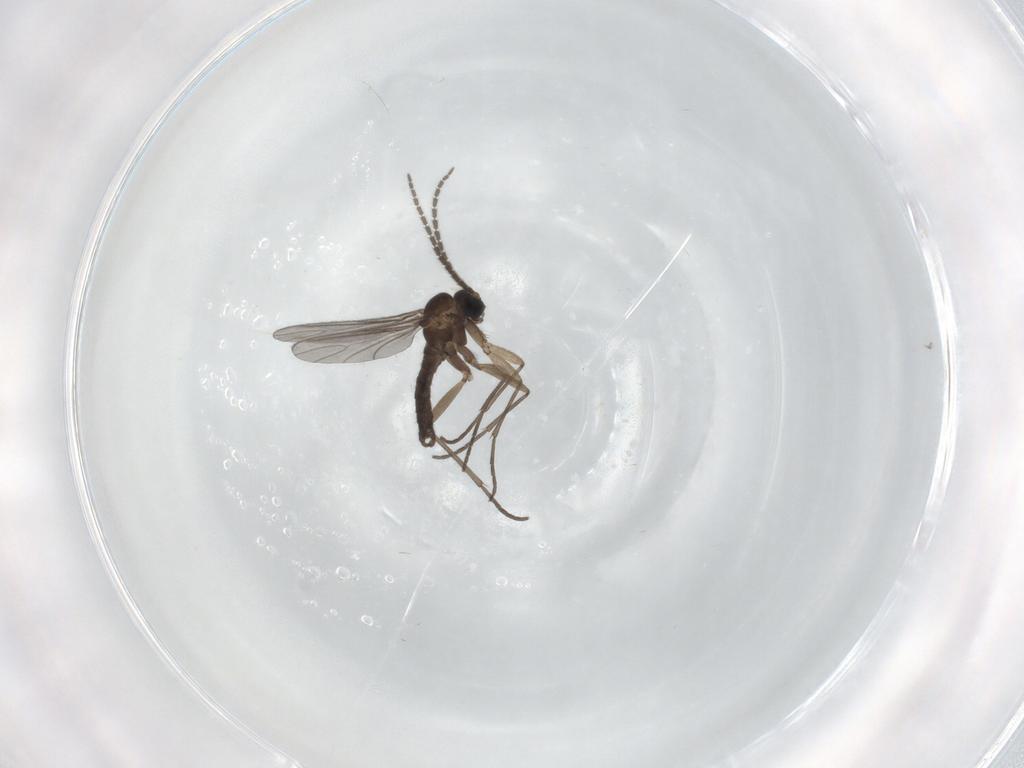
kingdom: Animalia
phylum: Arthropoda
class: Insecta
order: Diptera
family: Sciaridae
